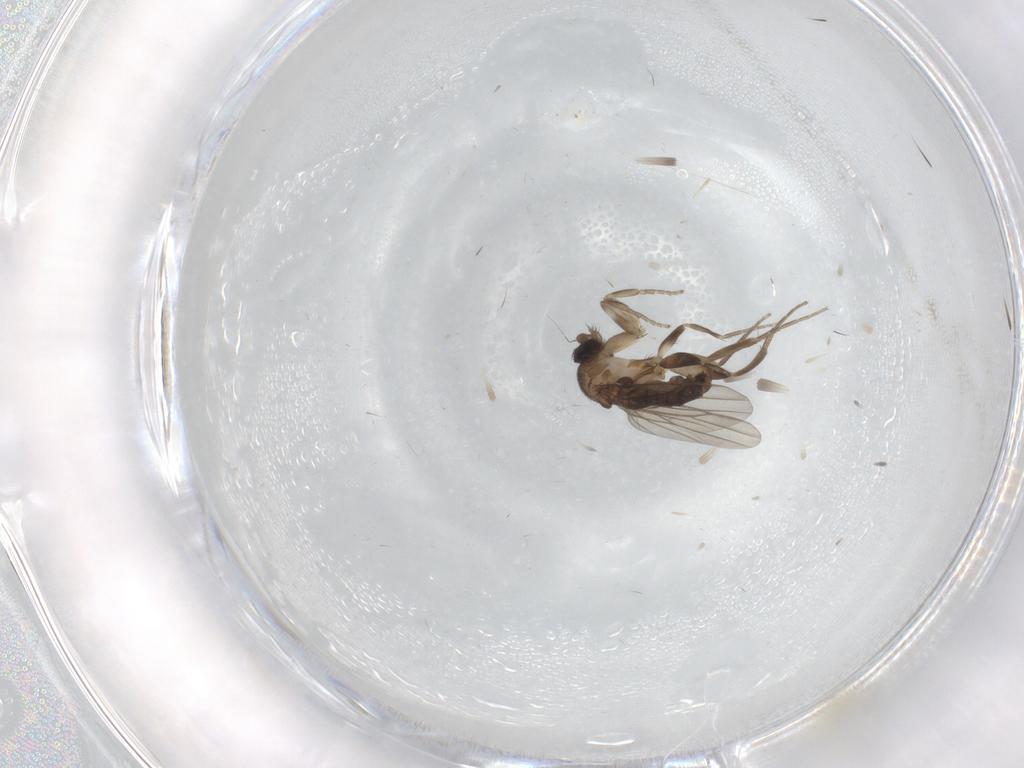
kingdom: Animalia
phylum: Arthropoda
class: Insecta
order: Diptera
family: Cecidomyiidae
